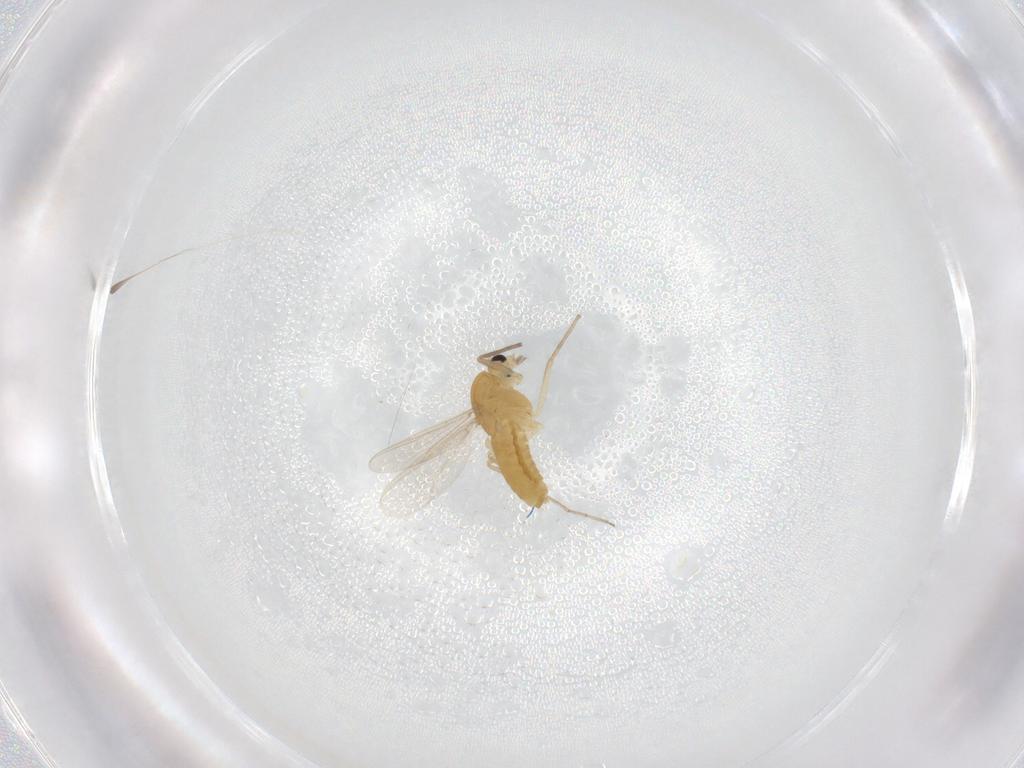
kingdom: Animalia
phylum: Arthropoda
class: Insecta
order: Diptera
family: Chironomidae
